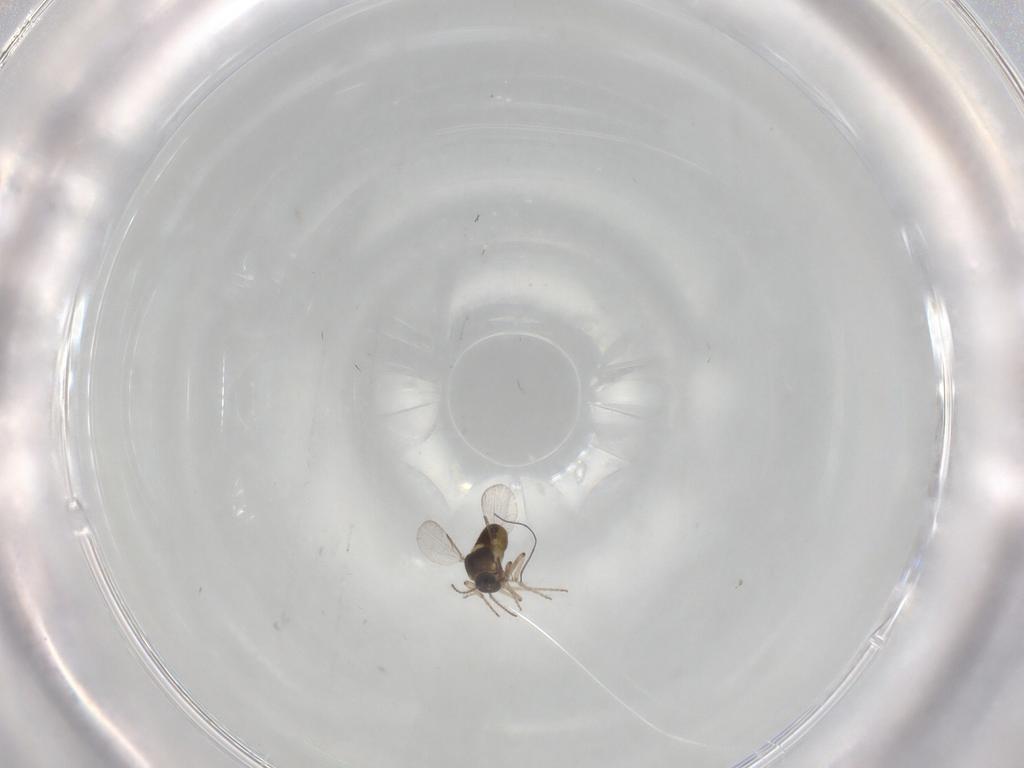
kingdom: Animalia
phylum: Arthropoda
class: Insecta
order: Diptera
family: Ceratopogonidae
